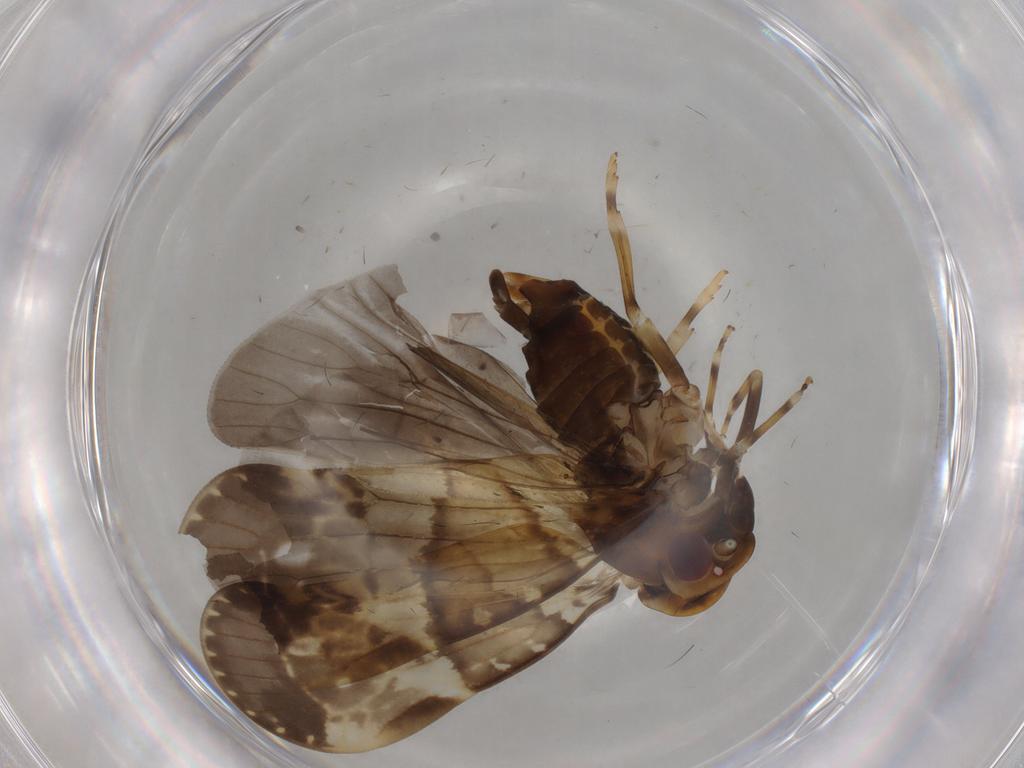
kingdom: Animalia
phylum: Arthropoda
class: Insecta
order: Hemiptera
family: Cixiidae
